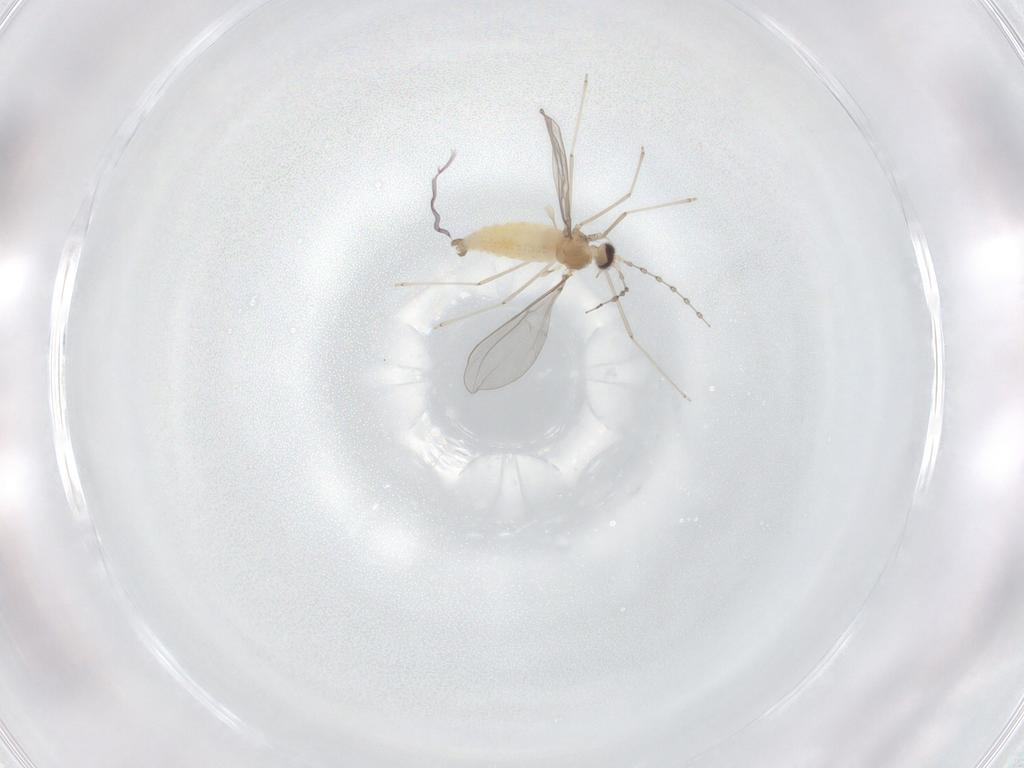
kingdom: Animalia
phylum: Arthropoda
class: Insecta
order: Diptera
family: Cecidomyiidae
